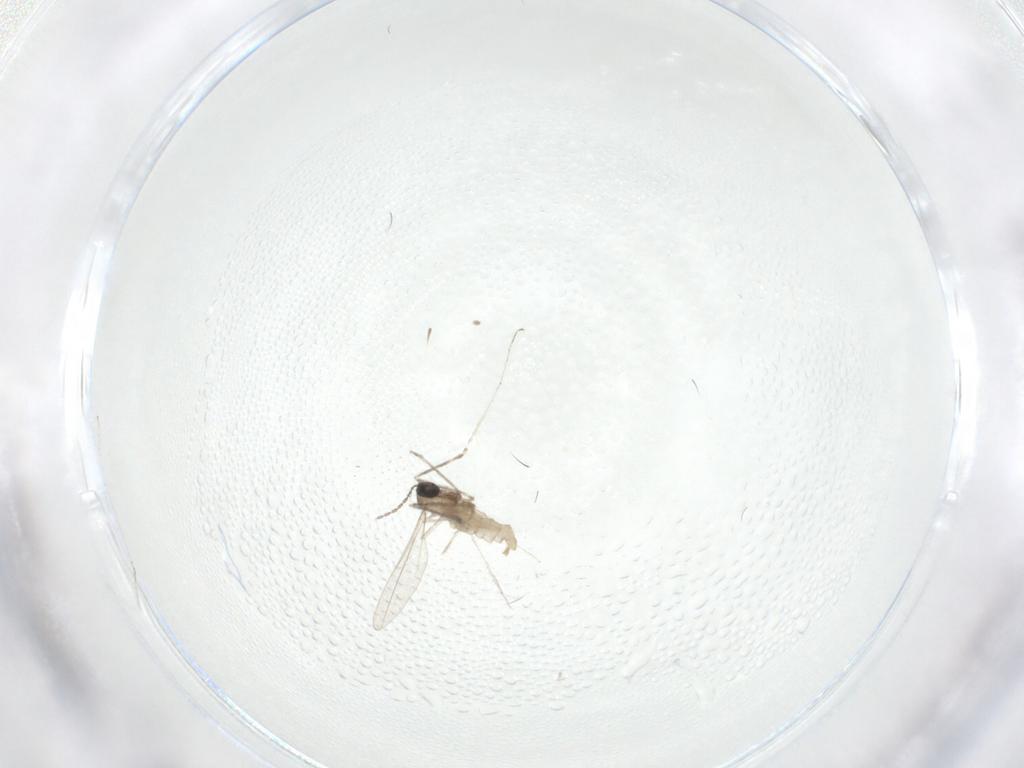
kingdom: Animalia
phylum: Arthropoda
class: Insecta
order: Diptera
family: Cecidomyiidae
